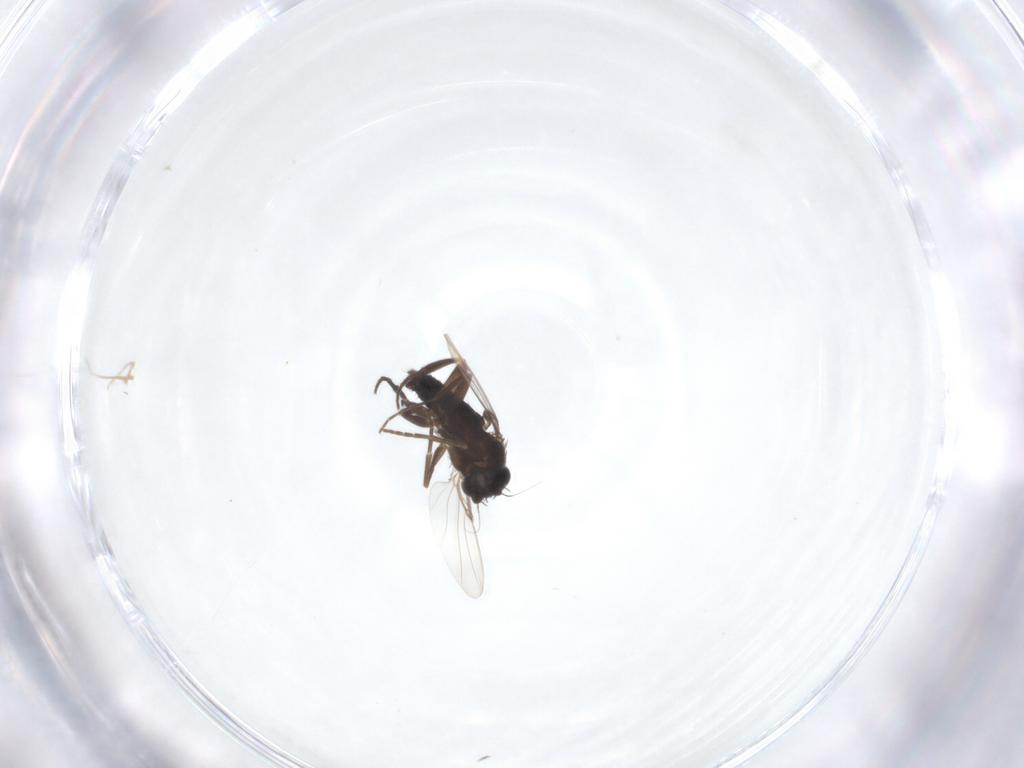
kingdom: Animalia
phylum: Arthropoda
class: Insecta
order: Diptera
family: Phoridae
